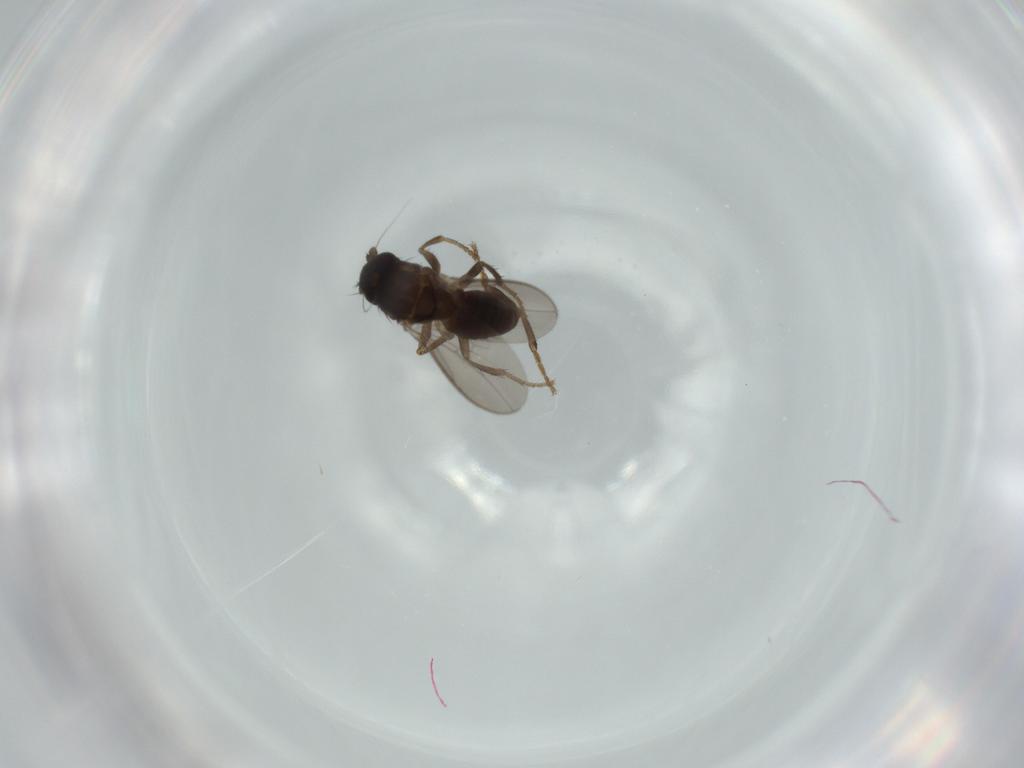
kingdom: Animalia
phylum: Arthropoda
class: Insecta
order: Diptera
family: Sphaeroceridae
